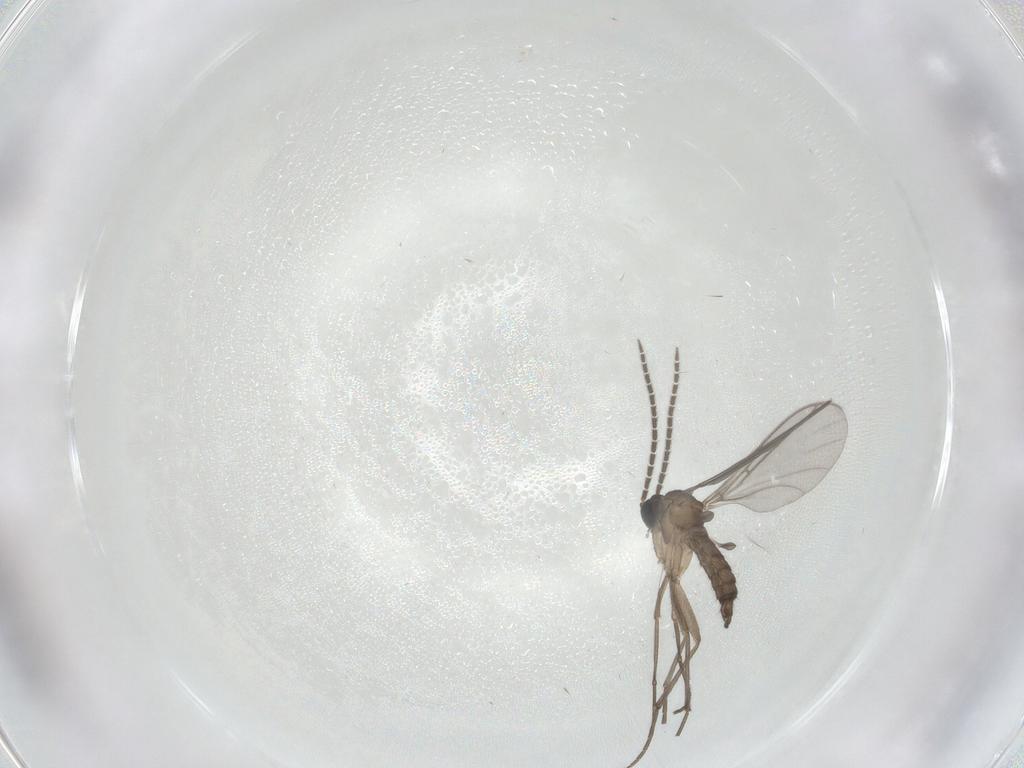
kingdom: Animalia
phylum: Arthropoda
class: Insecta
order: Diptera
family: Sciaridae
